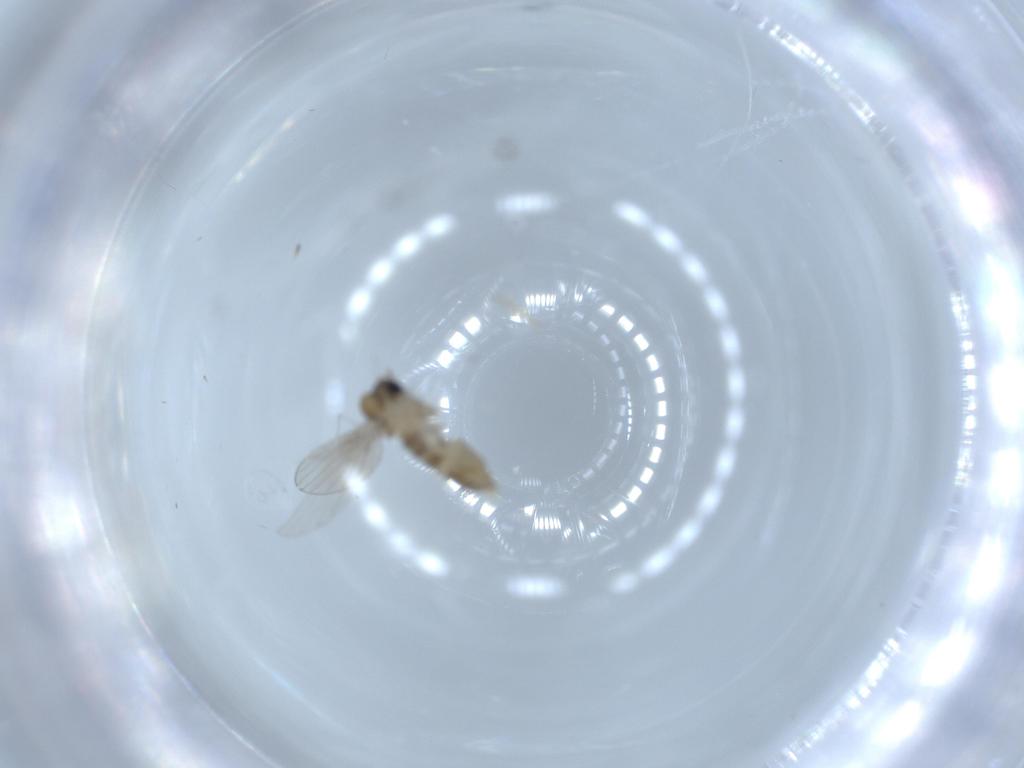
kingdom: Animalia
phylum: Arthropoda
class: Insecta
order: Diptera
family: Psychodidae
